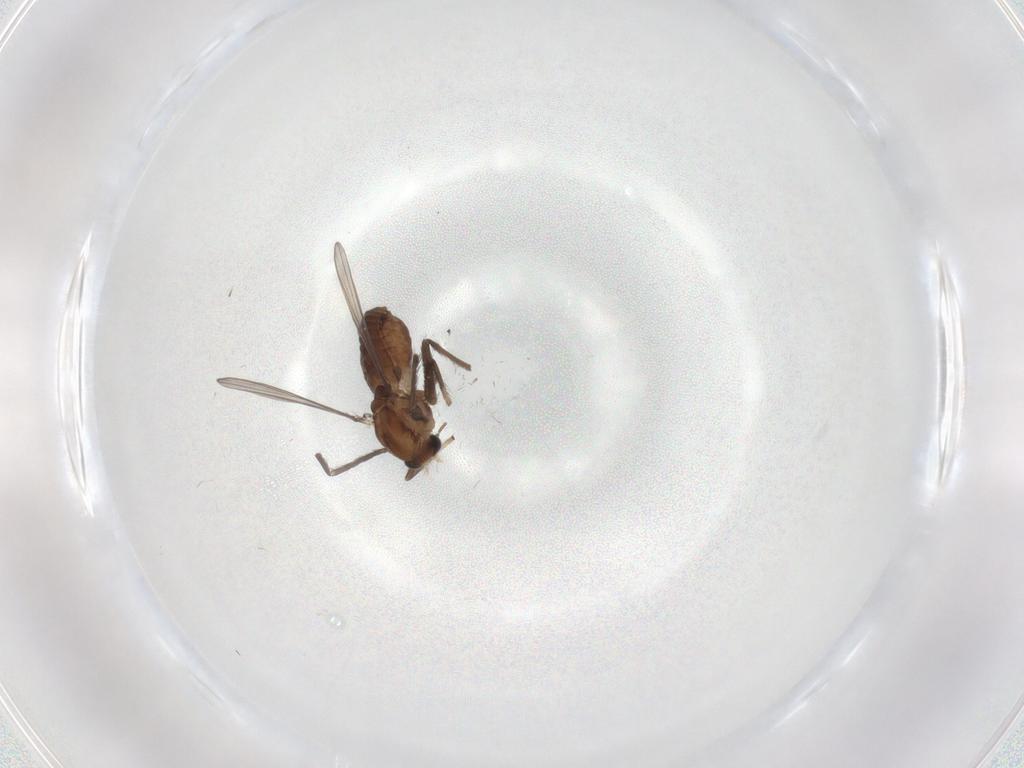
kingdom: Animalia
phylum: Arthropoda
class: Insecta
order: Diptera
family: Chironomidae
